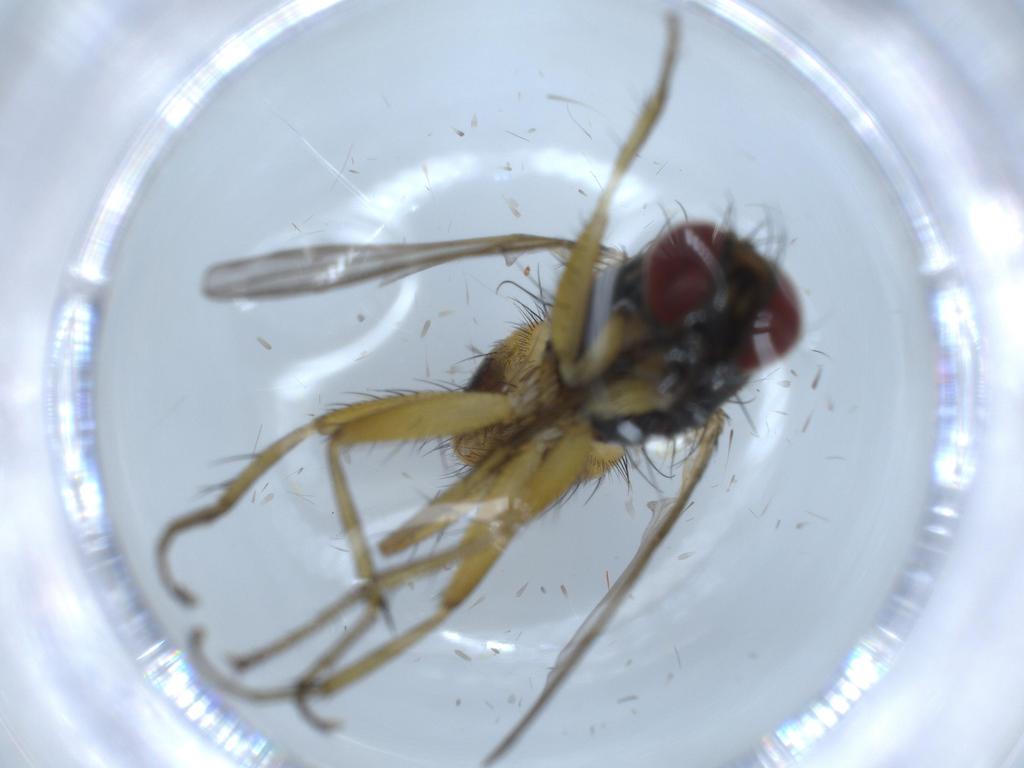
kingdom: Animalia
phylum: Arthropoda
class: Insecta
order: Diptera
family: Muscidae
